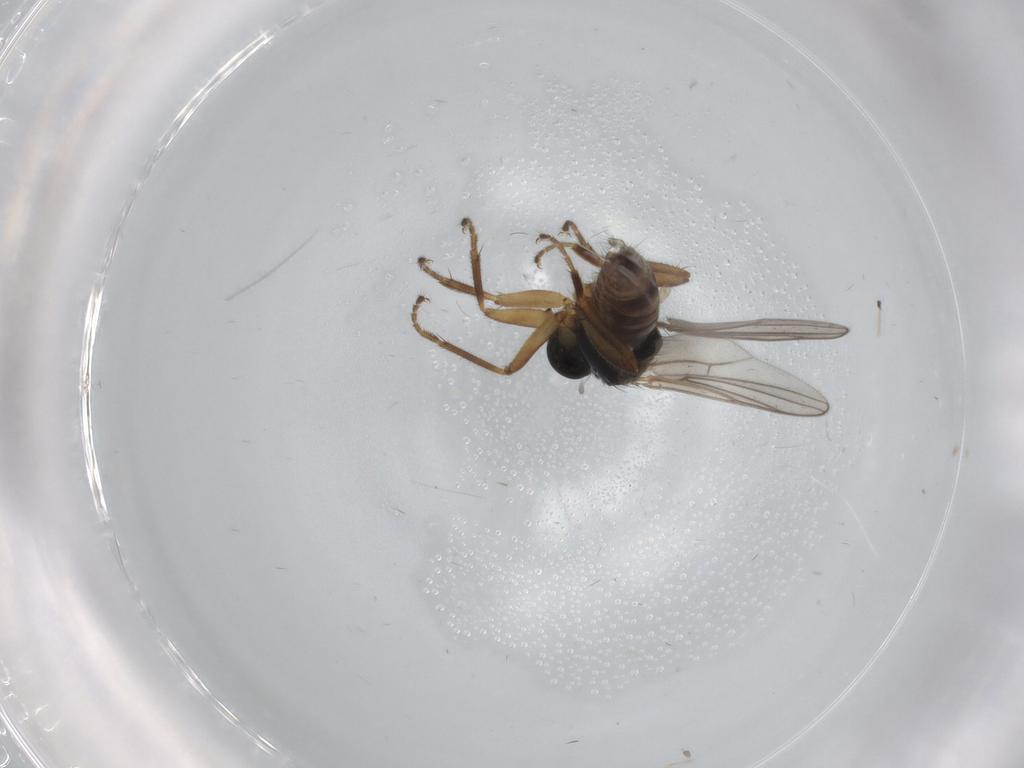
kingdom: Animalia
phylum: Arthropoda
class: Insecta
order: Diptera
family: Hybotidae
